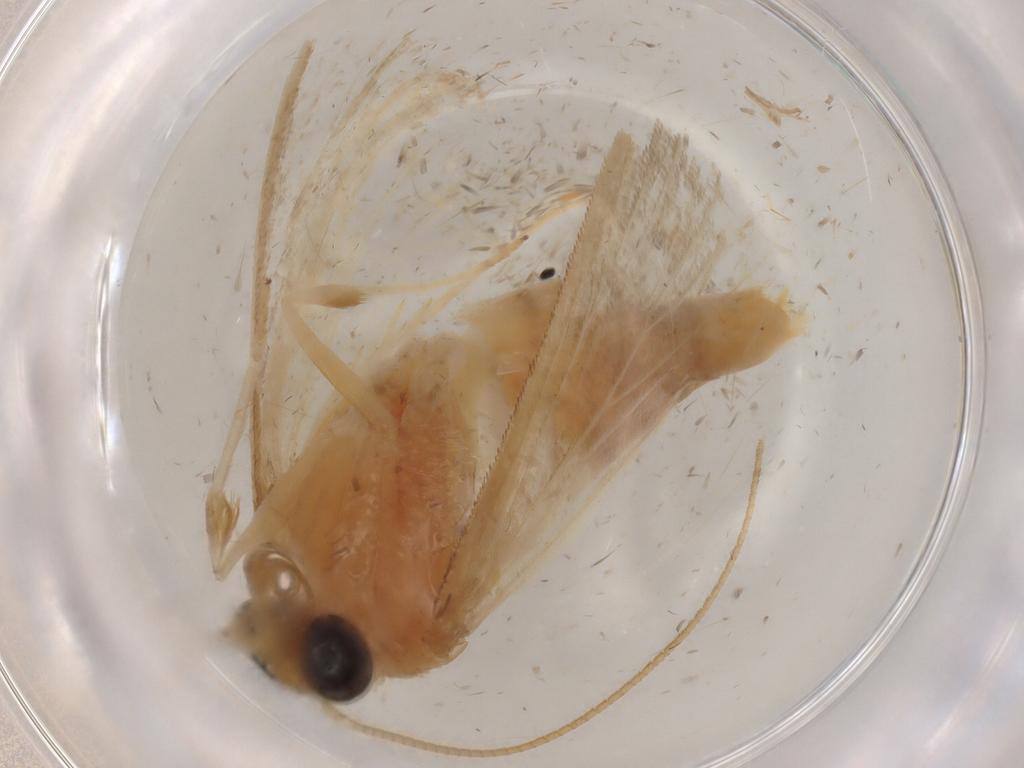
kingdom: Animalia
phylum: Arthropoda
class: Insecta
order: Lepidoptera
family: Crambidae
